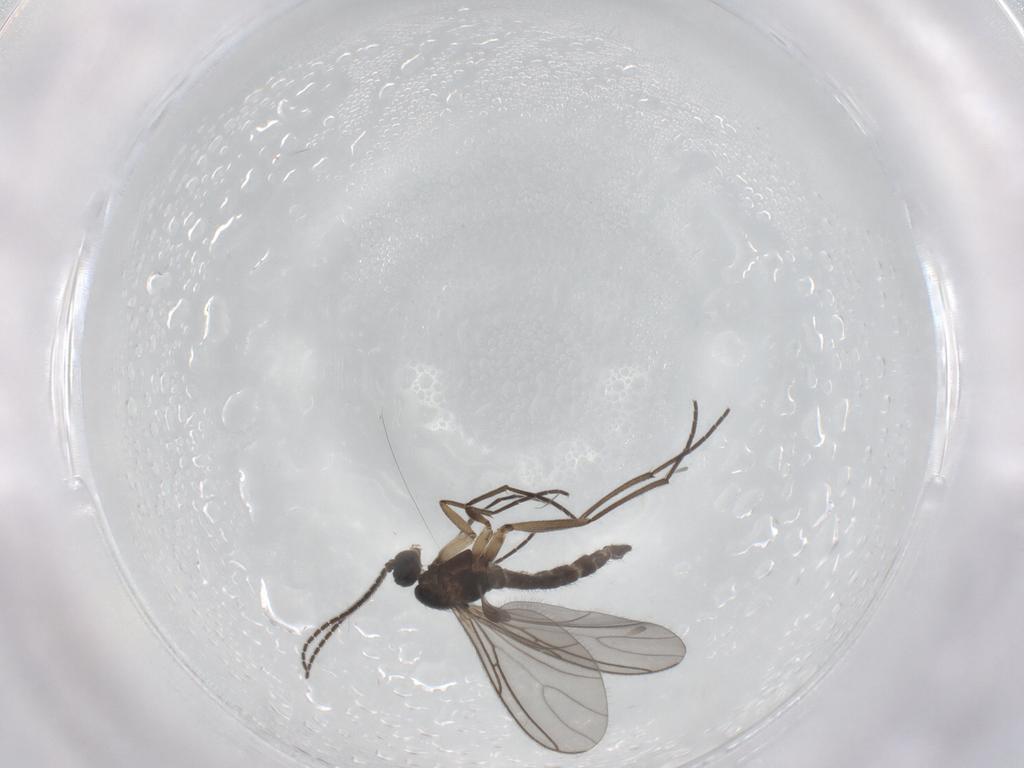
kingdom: Animalia
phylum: Arthropoda
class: Insecta
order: Diptera
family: Sciaridae
